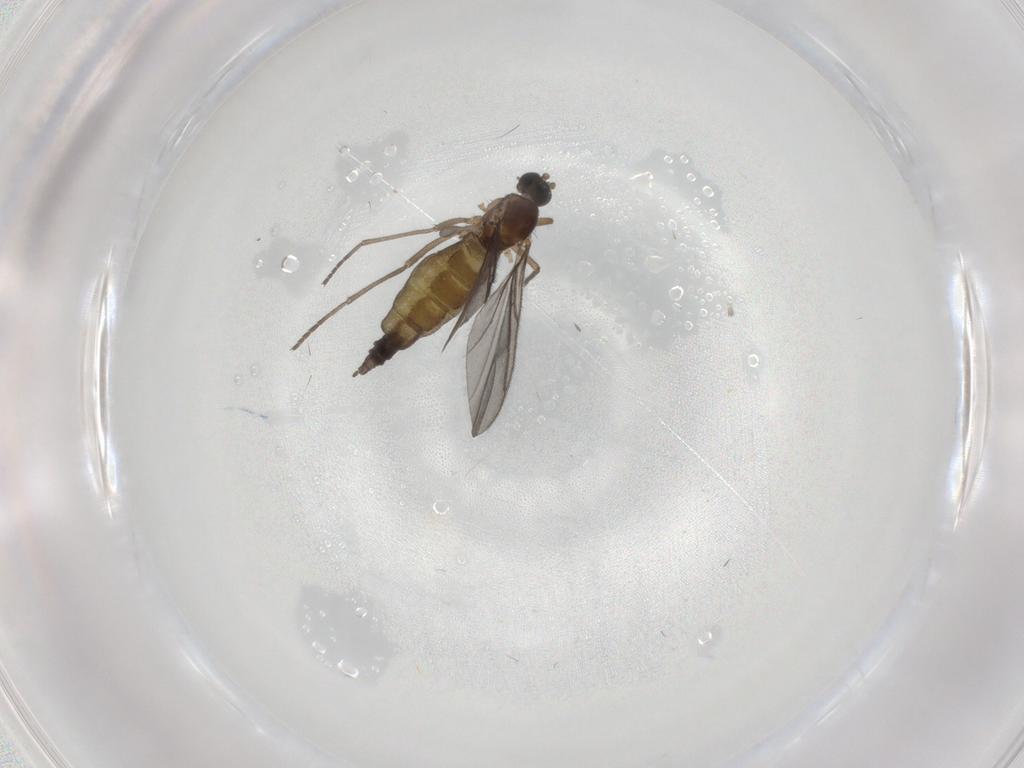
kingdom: Animalia
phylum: Arthropoda
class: Insecta
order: Diptera
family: Sciaridae
